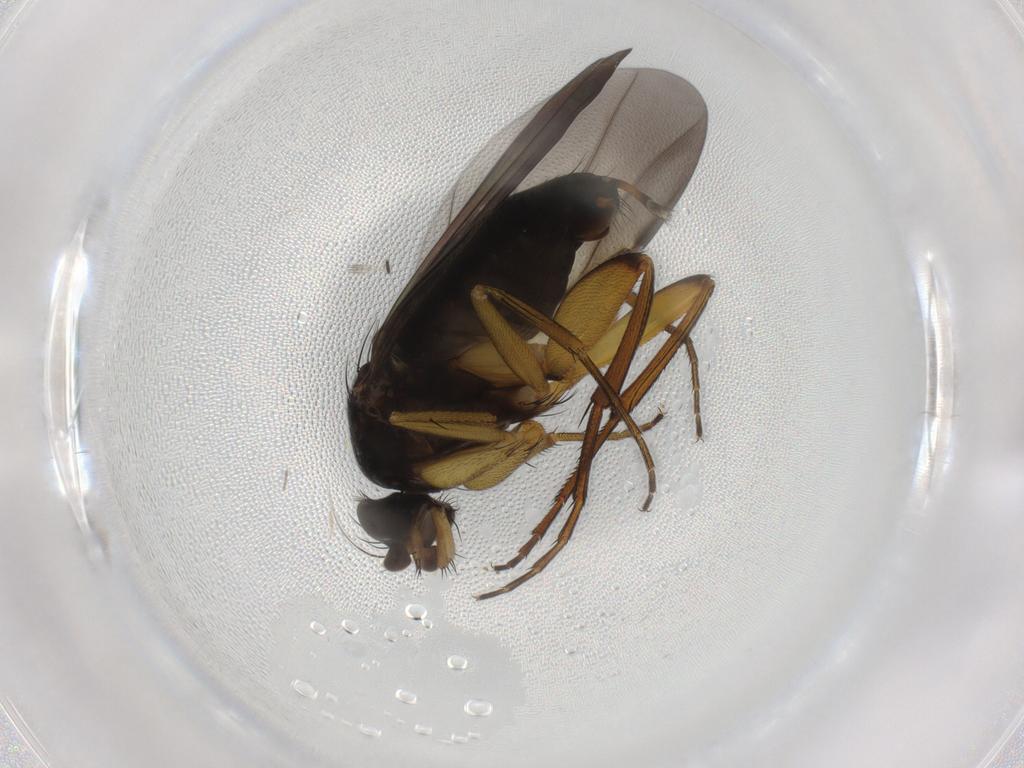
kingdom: Animalia
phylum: Arthropoda
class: Insecta
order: Diptera
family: Phoridae
